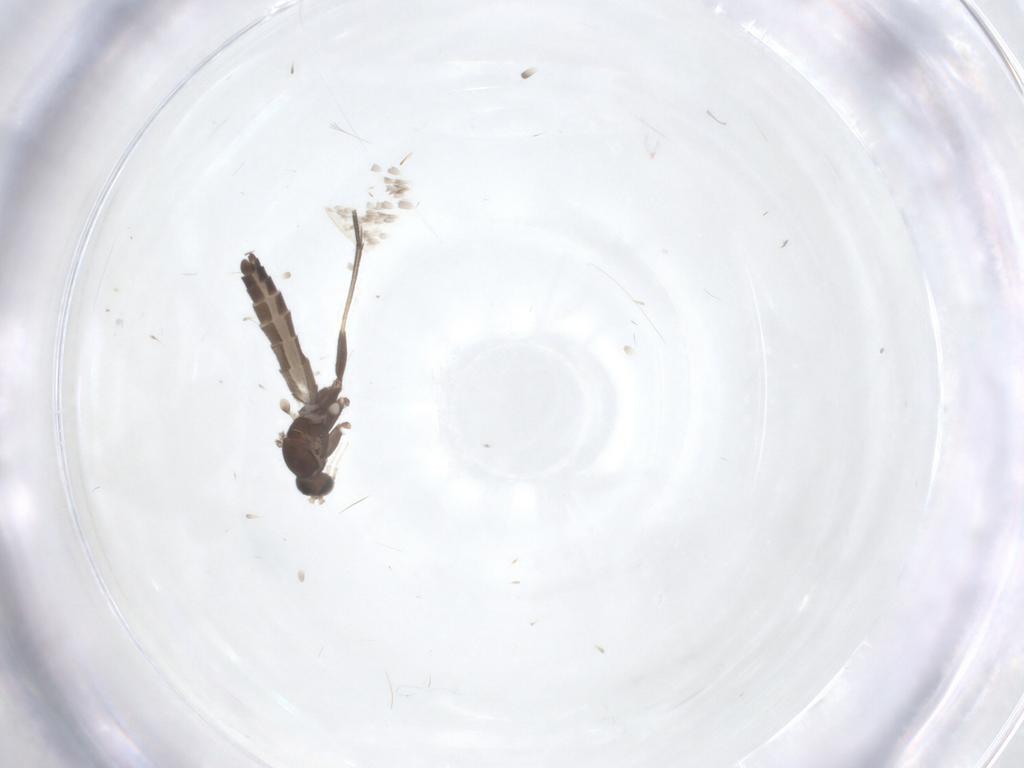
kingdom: Animalia
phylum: Arthropoda
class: Insecta
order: Diptera
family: Keroplatidae
